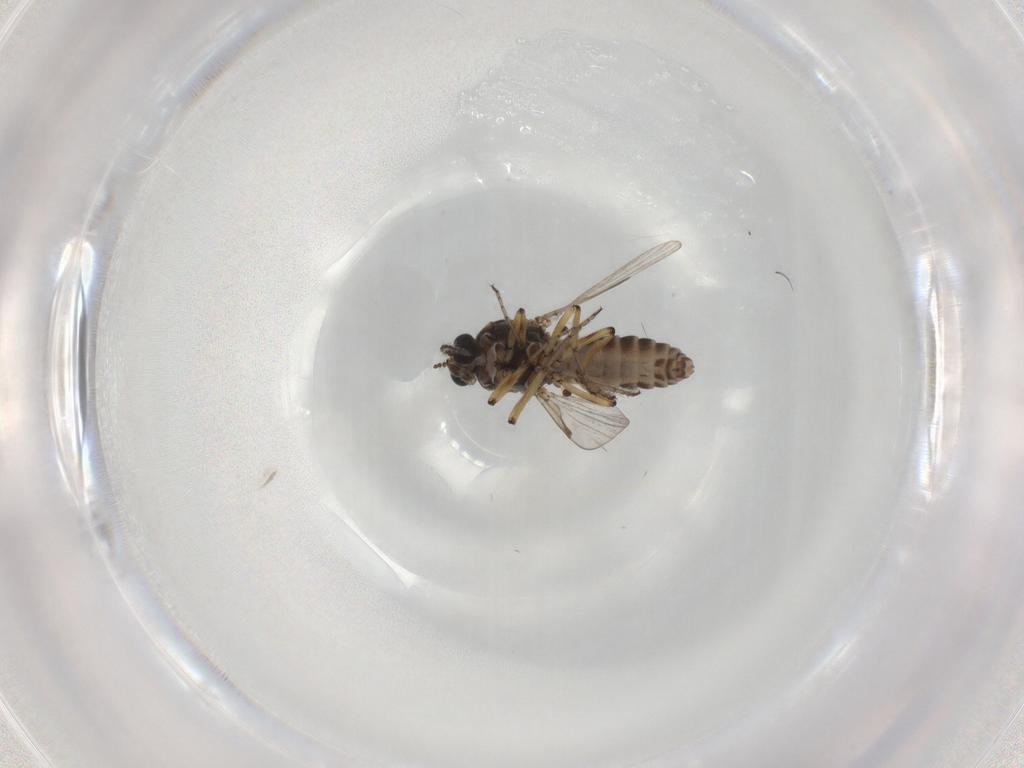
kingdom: Animalia
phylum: Arthropoda
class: Insecta
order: Diptera
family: Ceratopogonidae
